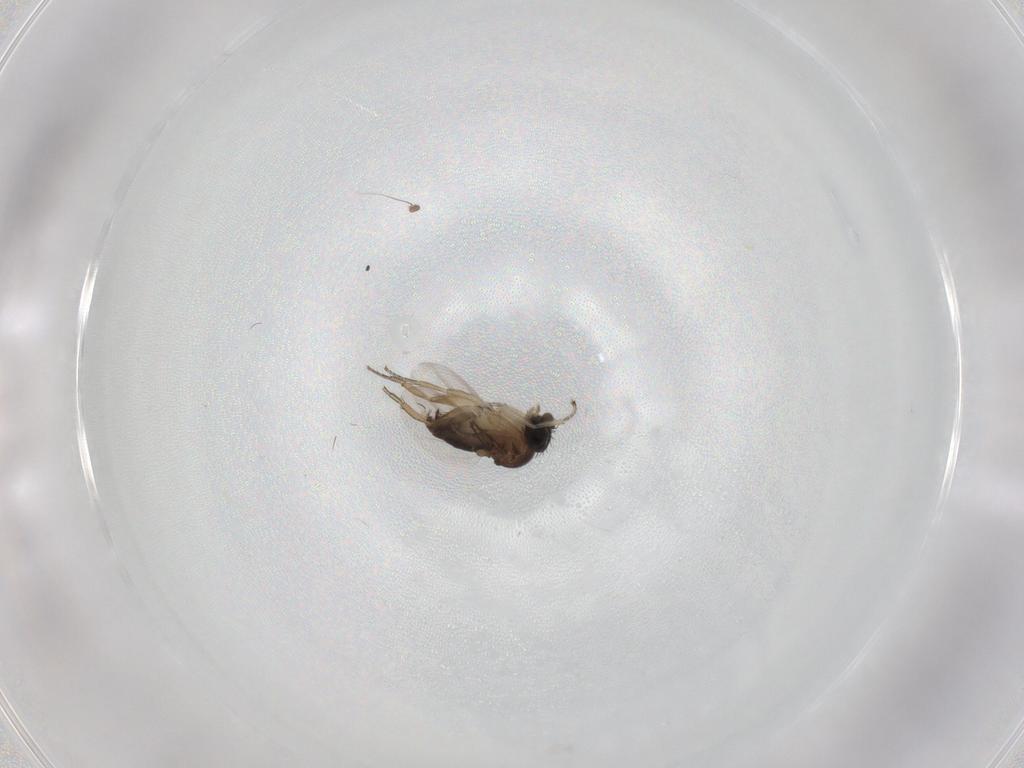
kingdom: Animalia
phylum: Arthropoda
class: Insecta
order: Diptera
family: Phoridae
